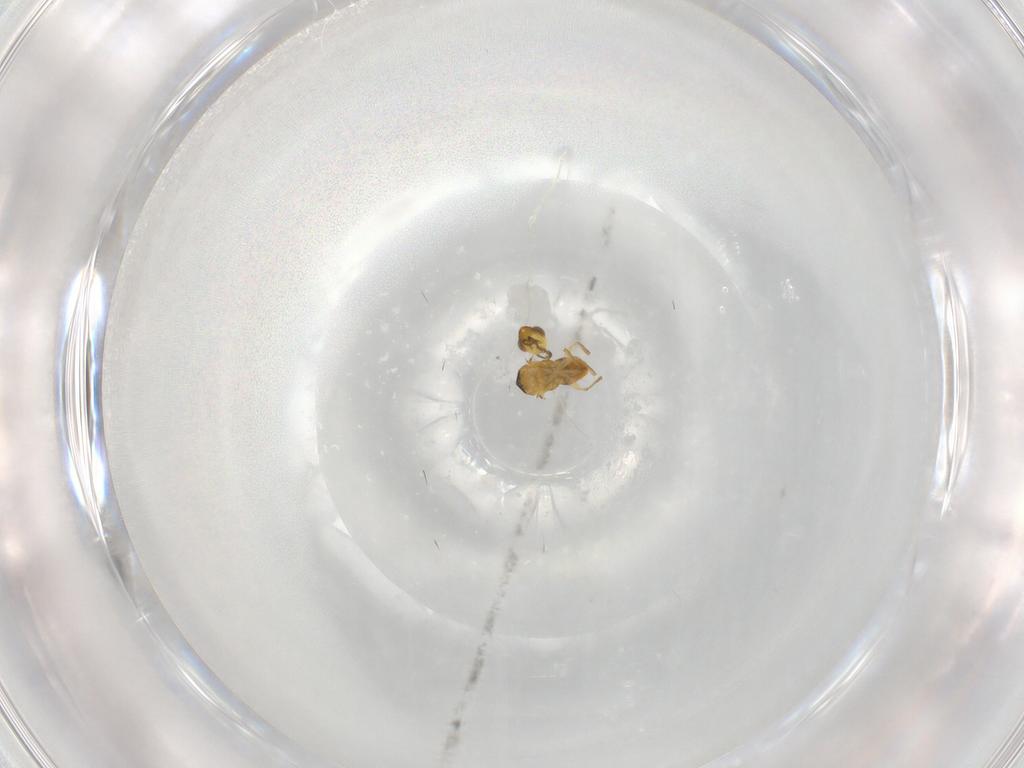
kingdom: Animalia
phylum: Arthropoda
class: Insecta
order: Hymenoptera
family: Encyrtidae
